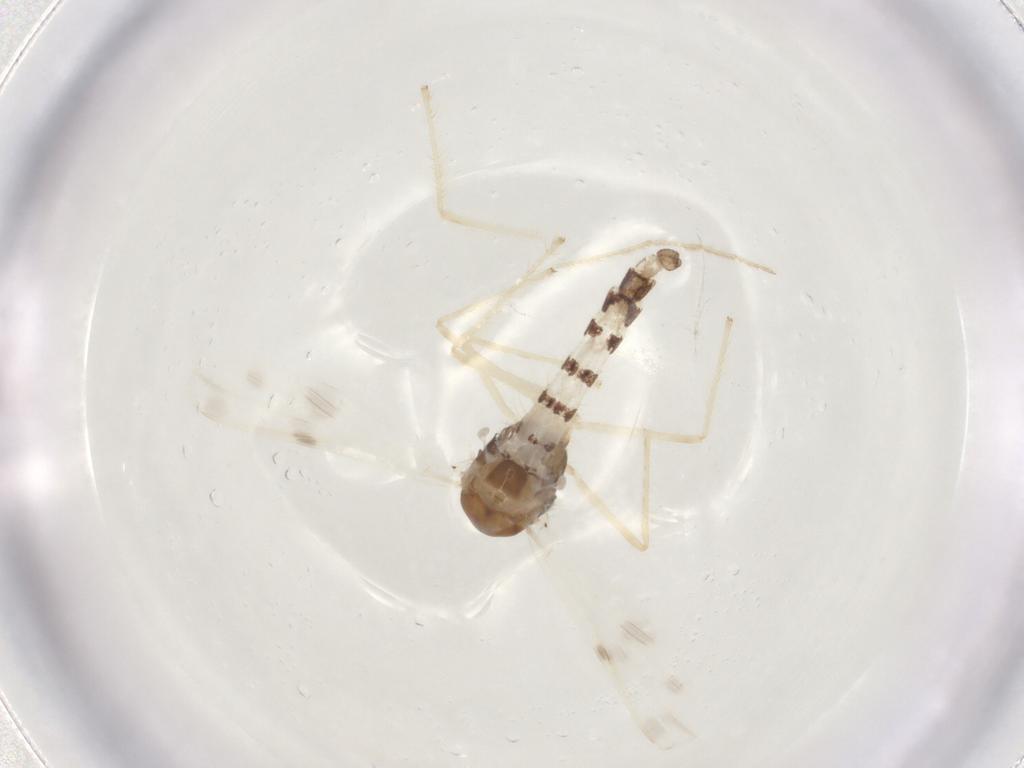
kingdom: Animalia
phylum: Arthropoda
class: Insecta
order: Diptera
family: Chironomidae
